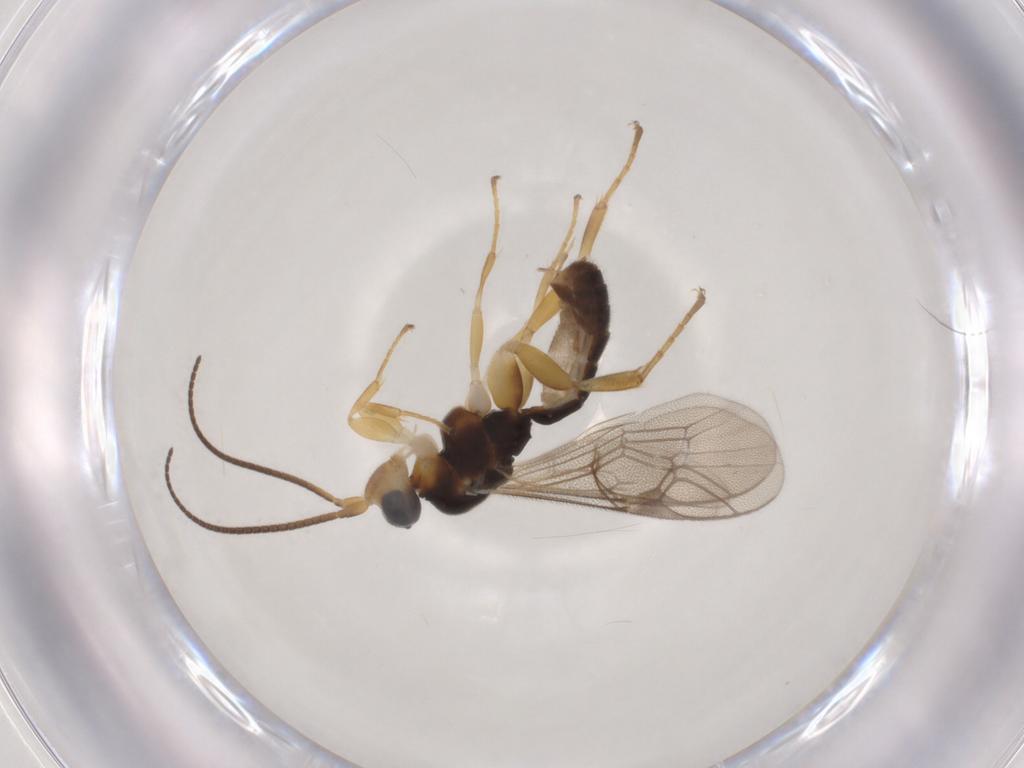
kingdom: Animalia
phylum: Arthropoda
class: Insecta
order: Hymenoptera
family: Ichneumonidae
